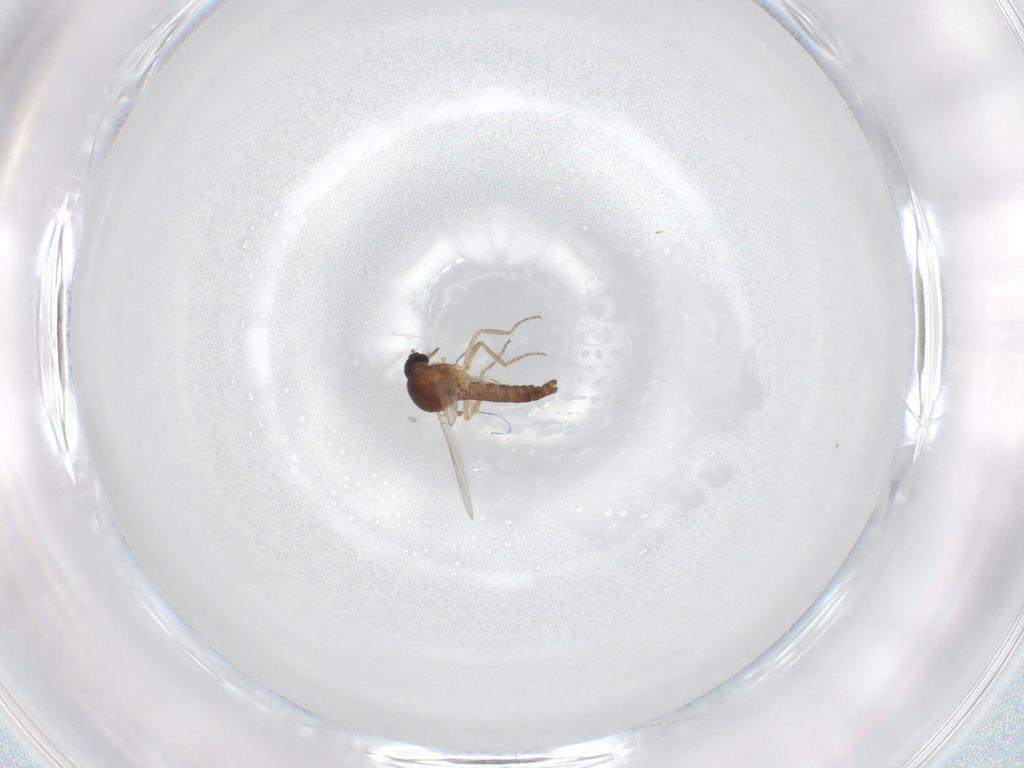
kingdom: Animalia
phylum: Arthropoda
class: Insecta
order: Diptera
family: Ceratopogonidae
